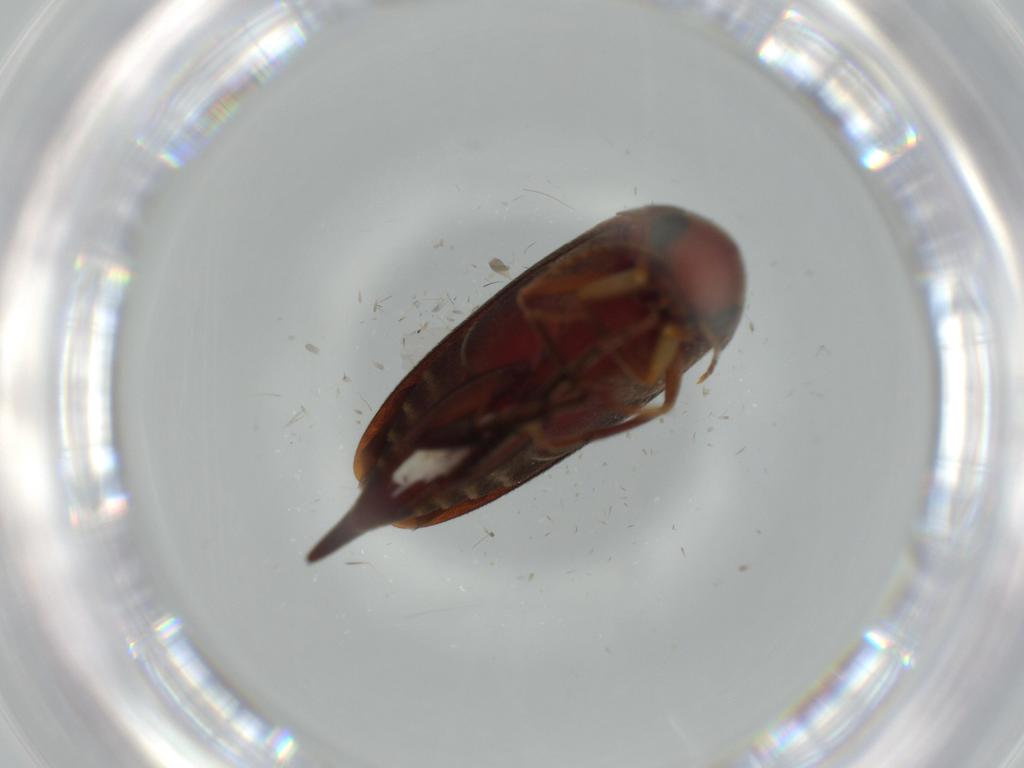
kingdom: Animalia
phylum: Arthropoda
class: Insecta
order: Coleoptera
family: Mordellidae
